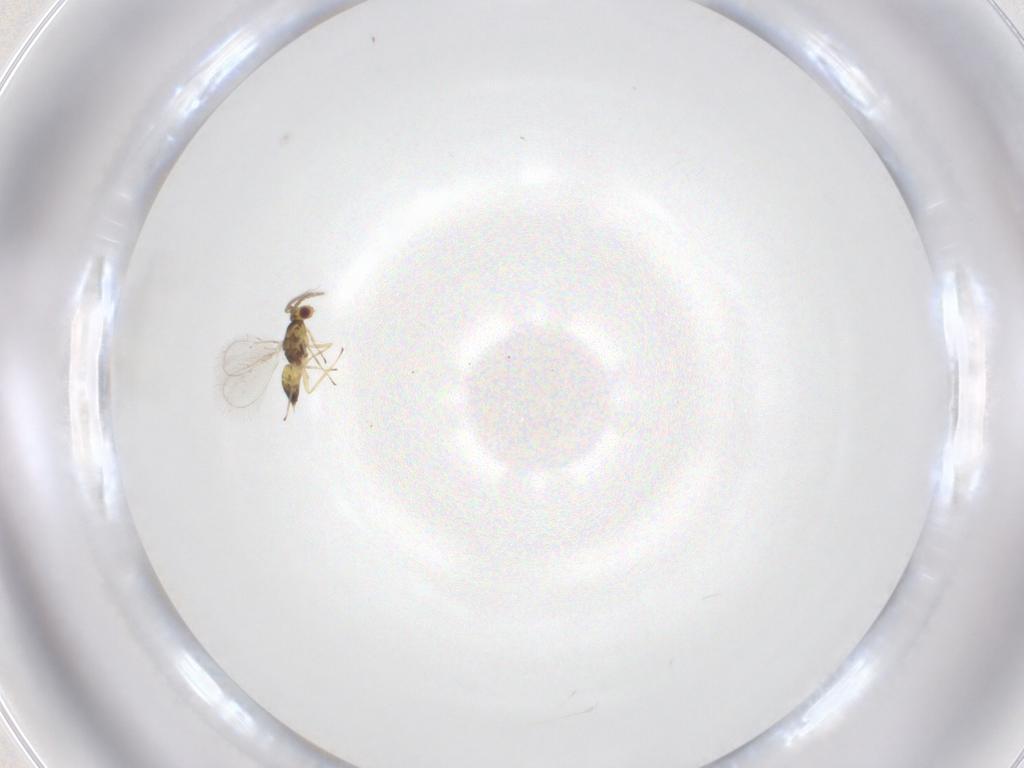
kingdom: Animalia
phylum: Arthropoda
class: Insecta
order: Hymenoptera
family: Eulophidae
